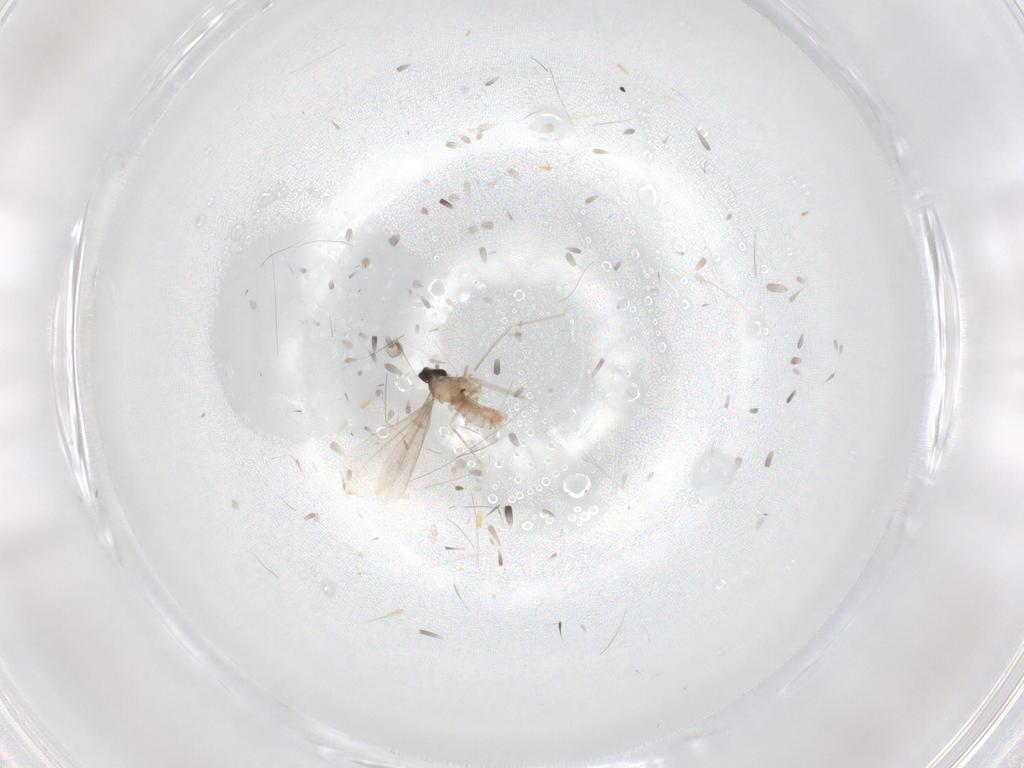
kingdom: Animalia
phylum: Arthropoda
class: Insecta
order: Diptera
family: Cecidomyiidae
